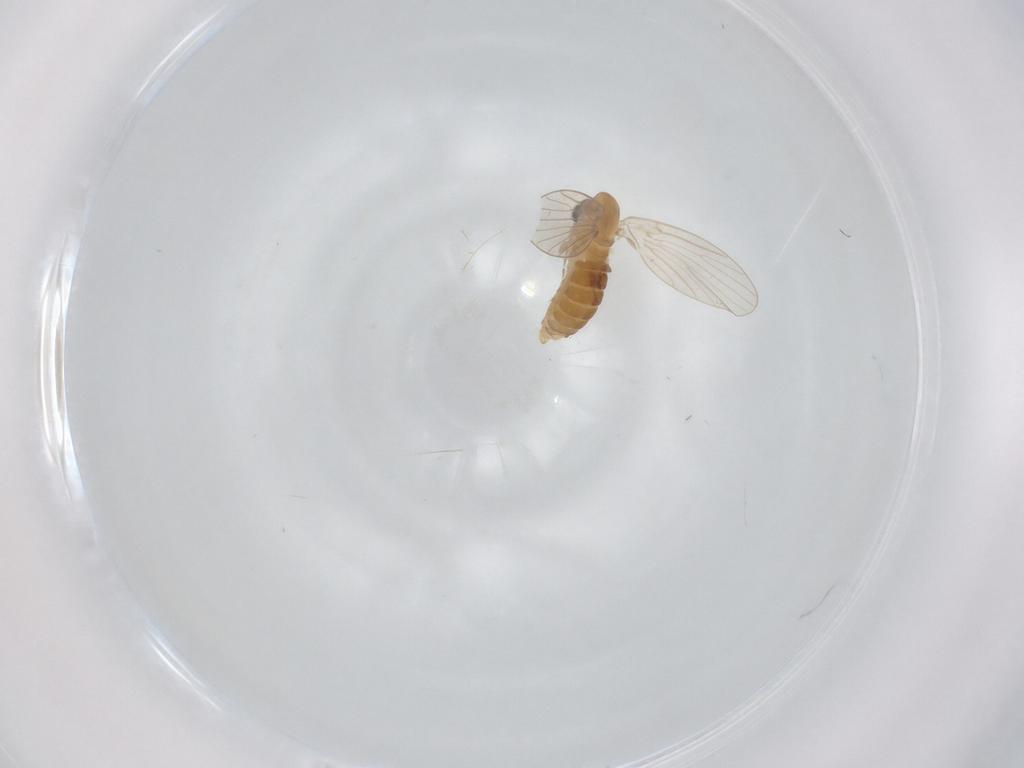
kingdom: Animalia
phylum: Arthropoda
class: Insecta
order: Diptera
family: Psychodidae
